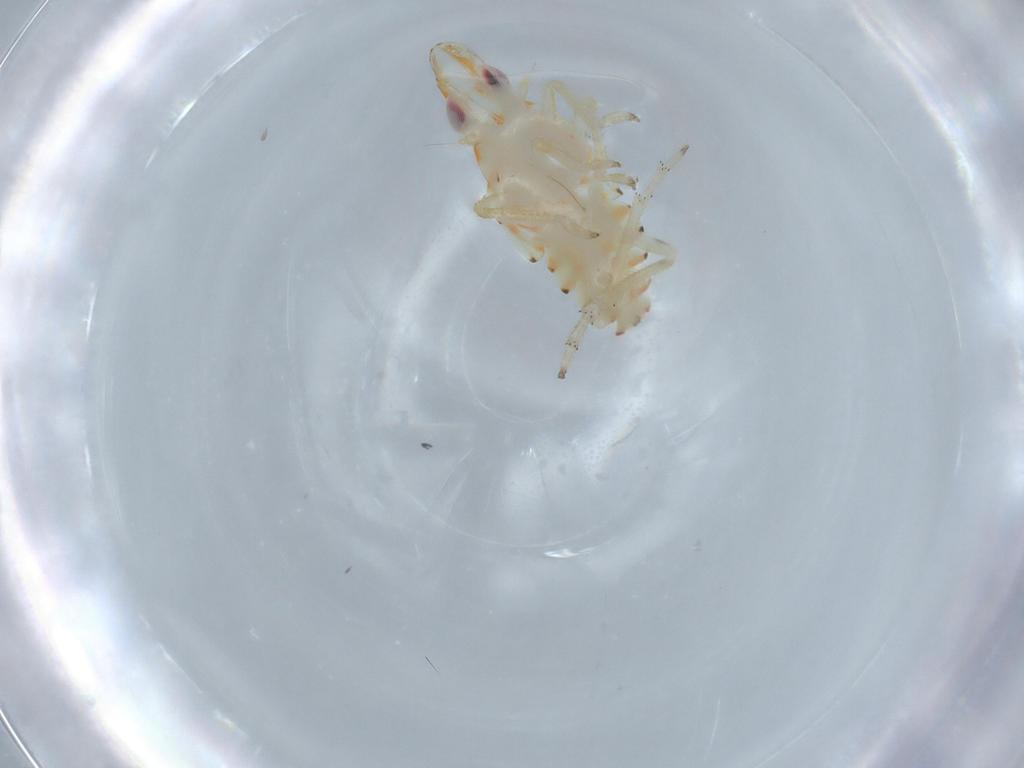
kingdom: Animalia
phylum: Arthropoda
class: Insecta
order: Hemiptera
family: Tropiduchidae
